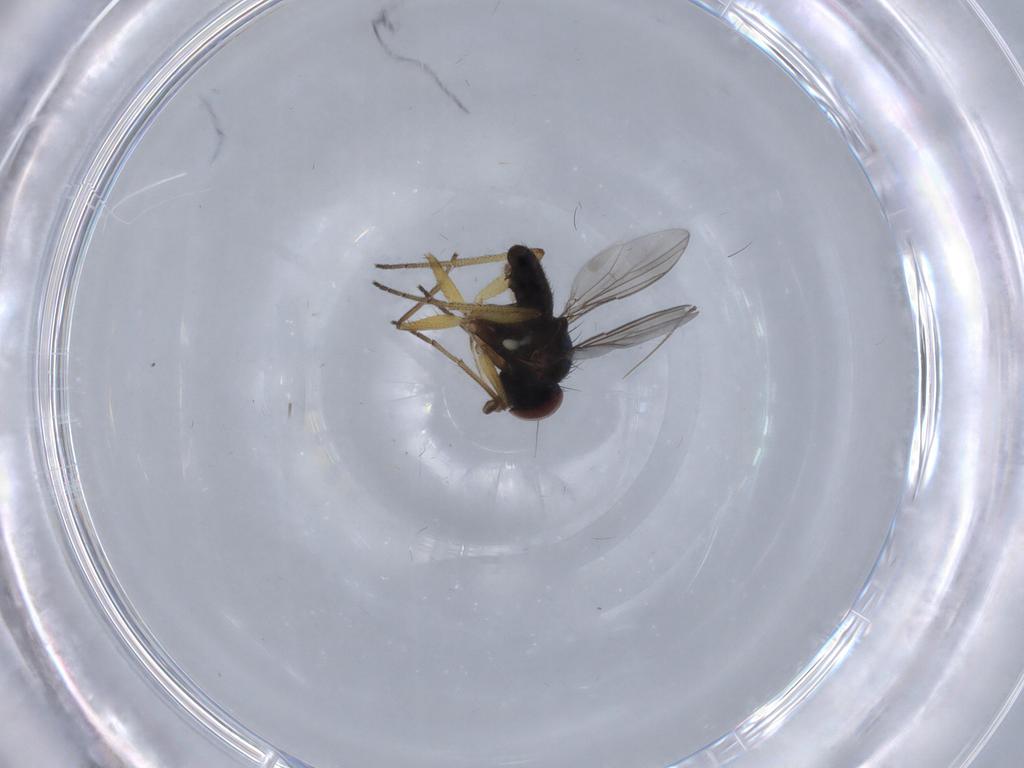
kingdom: Animalia
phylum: Arthropoda
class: Insecta
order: Diptera
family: Dolichopodidae
